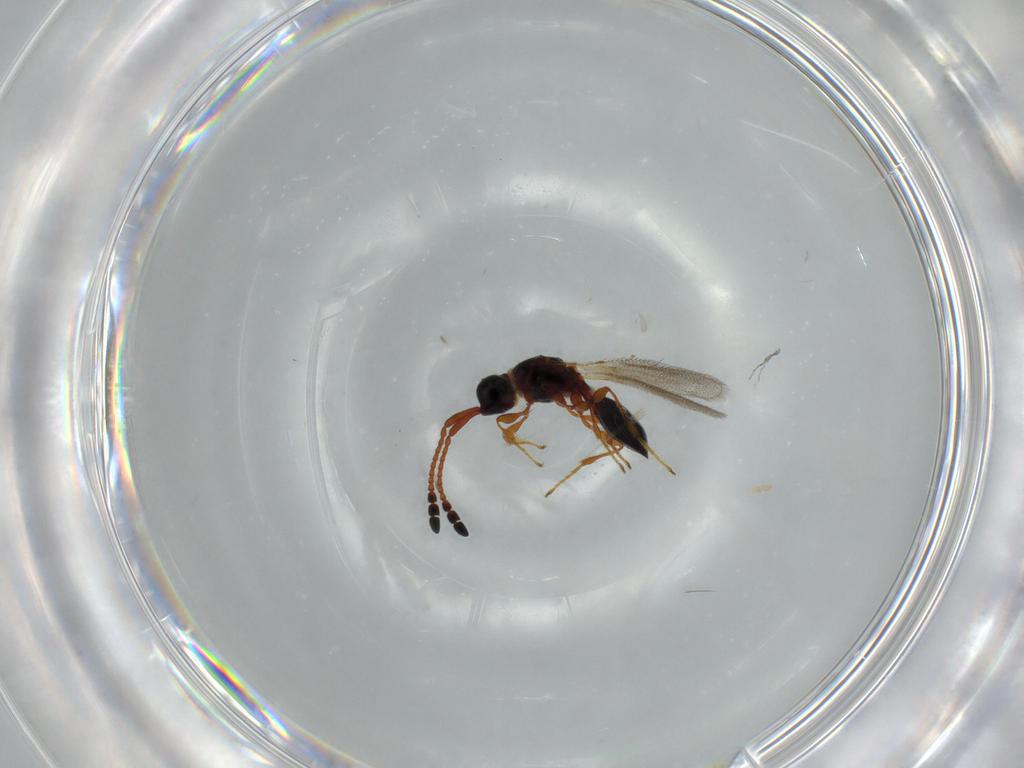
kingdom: Animalia
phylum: Arthropoda
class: Insecta
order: Hymenoptera
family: Diapriidae
